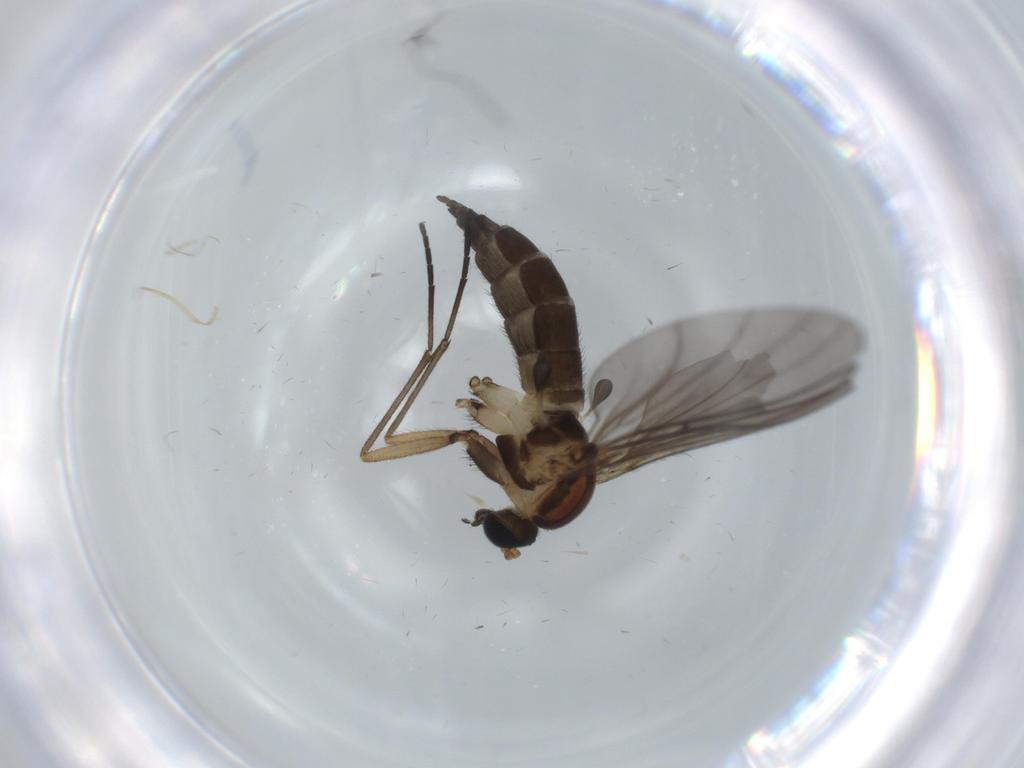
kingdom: Animalia
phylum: Arthropoda
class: Insecta
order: Diptera
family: Sciaridae
